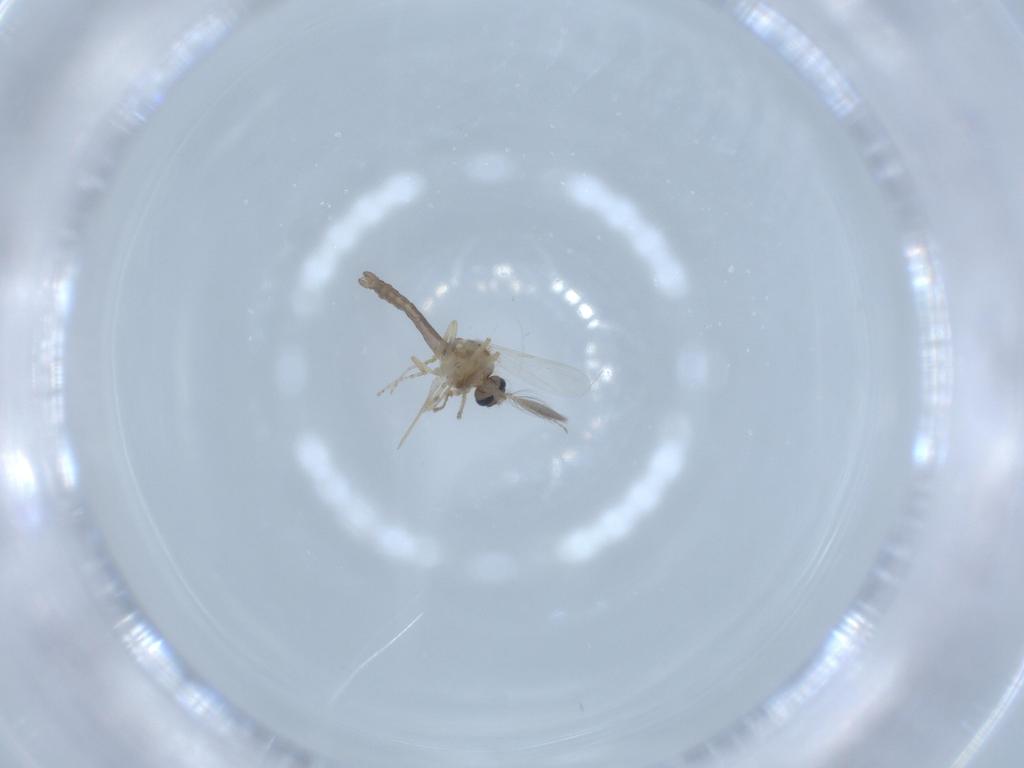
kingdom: Animalia
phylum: Arthropoda
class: Insecta
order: Diptera
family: Ceratopogonidae
